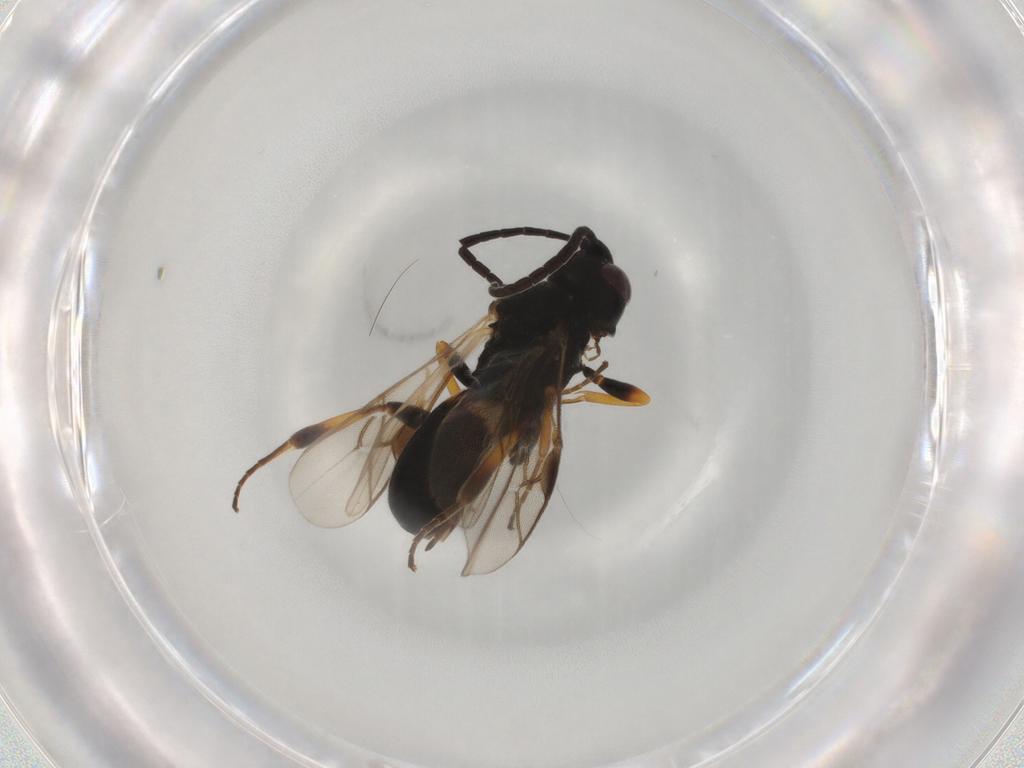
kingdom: Animalia
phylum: Arthropoda
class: Insecta
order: Hymenoptera
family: Braconidae
